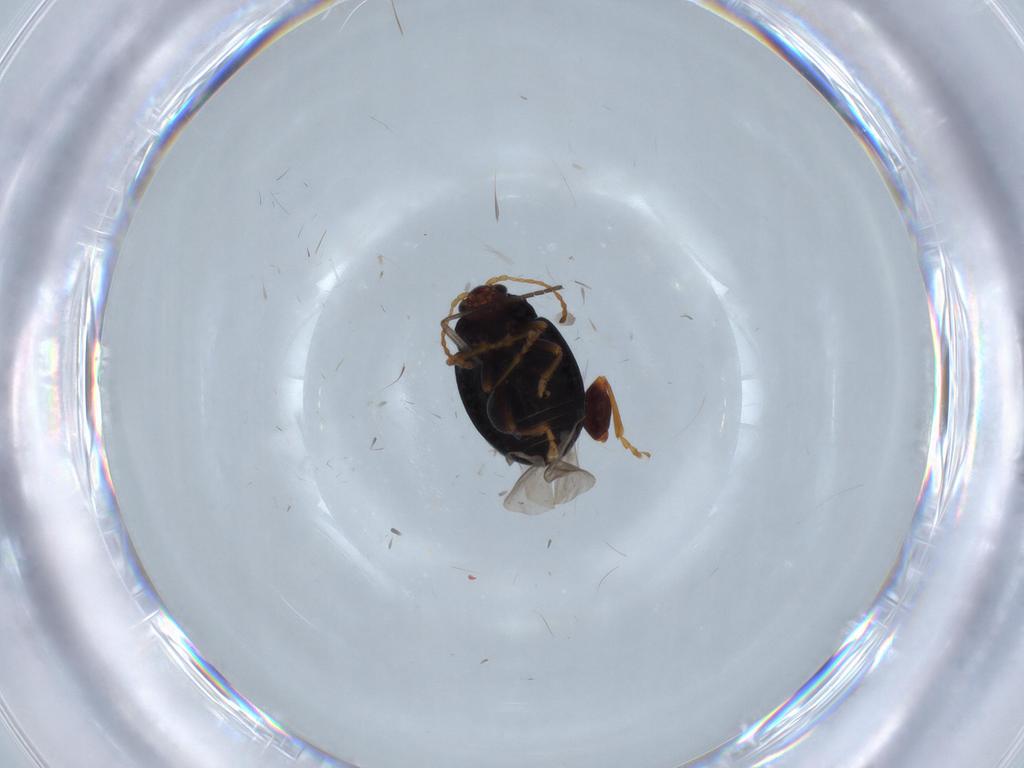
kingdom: Animalia
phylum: Arthropoda
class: Insecta
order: Coleoptera
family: Chrysomelidae
